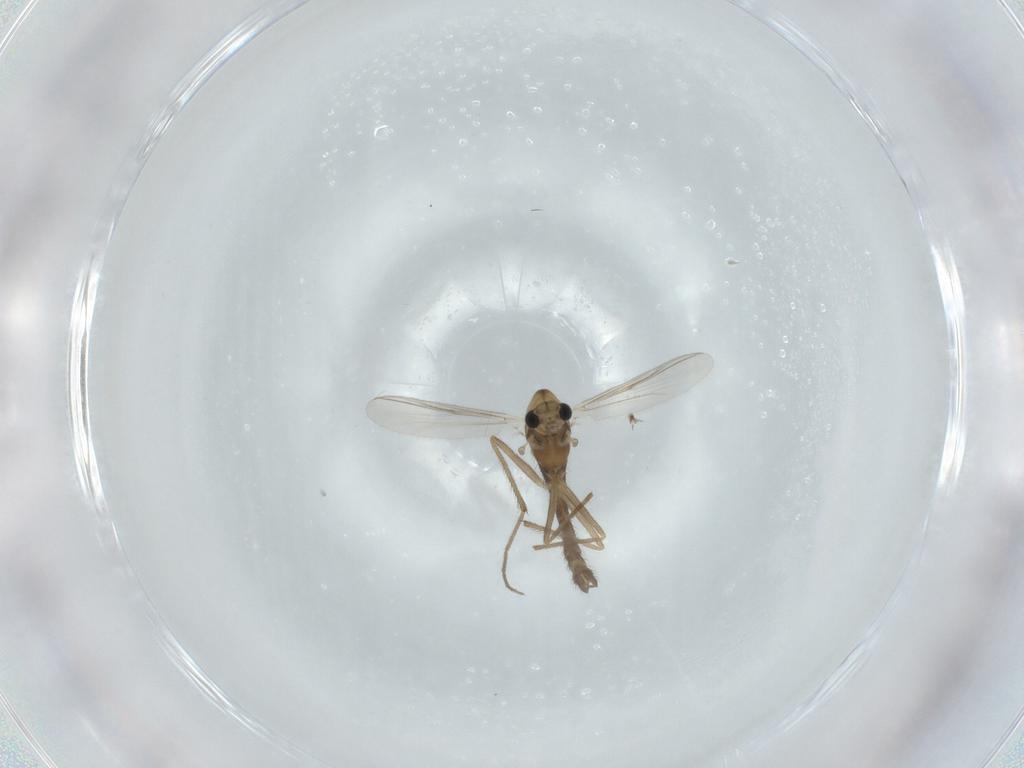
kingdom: Animalia
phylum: Arthropoda
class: Insecta
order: Diptera
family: Chironomidae
